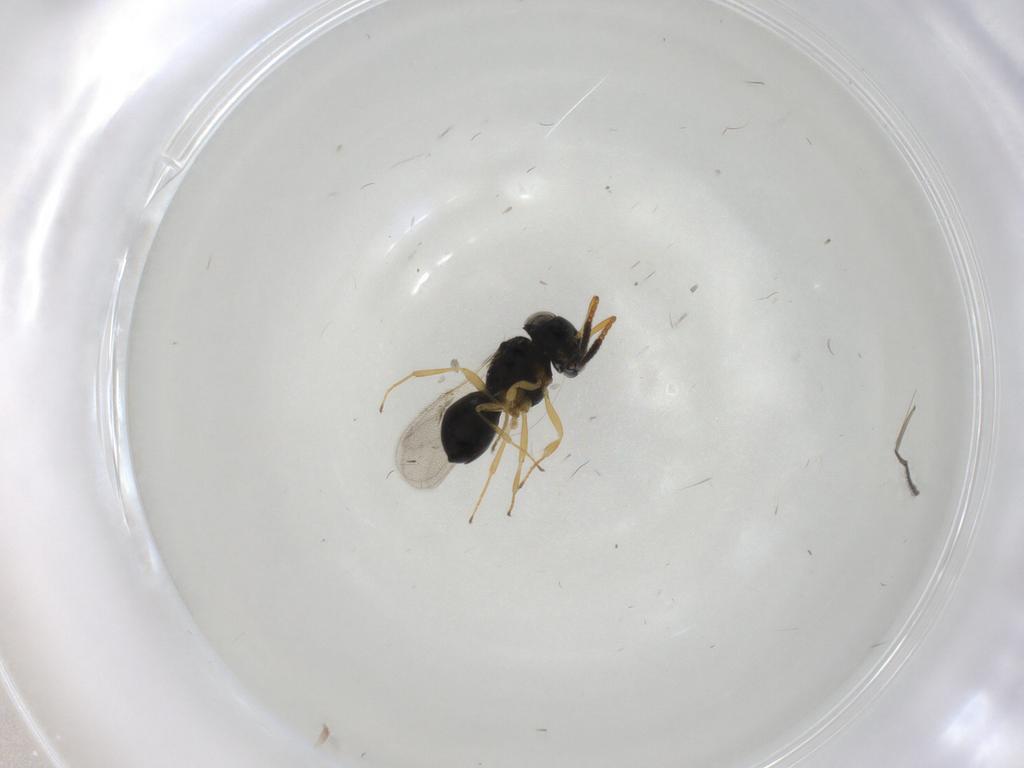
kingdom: Animalia
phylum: Arthropoda
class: Insecta
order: Hymenoptera
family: Scelionidae
